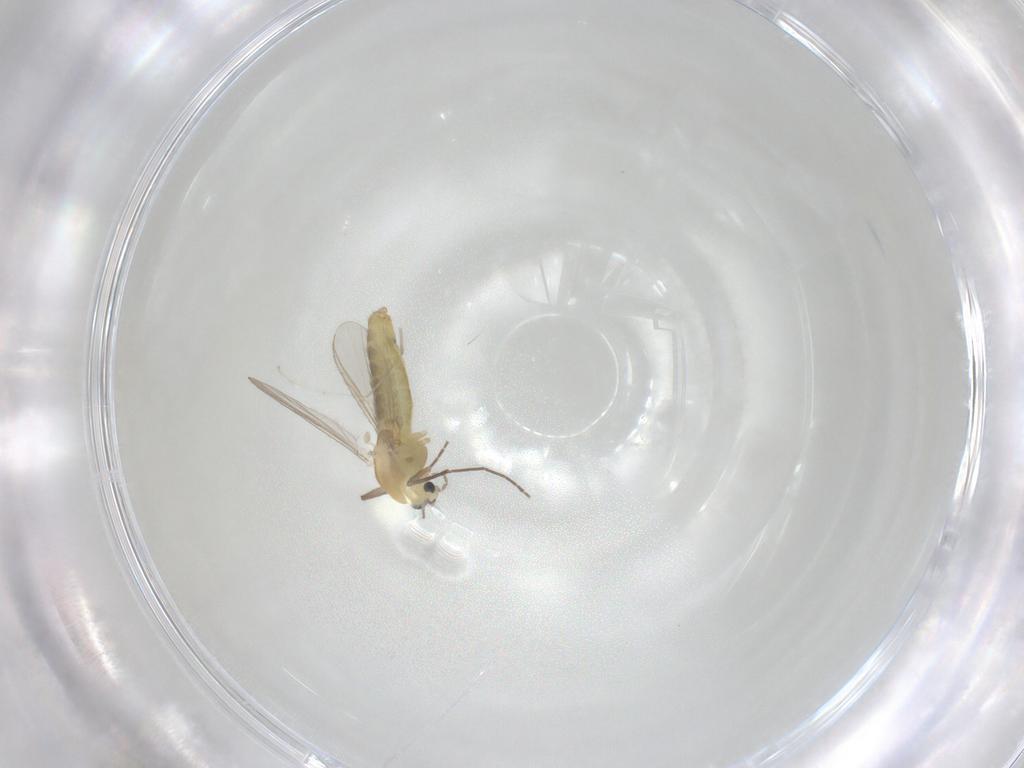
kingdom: Animalia
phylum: Arthropoda
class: Insecta
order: Diptera
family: Chironomidae
